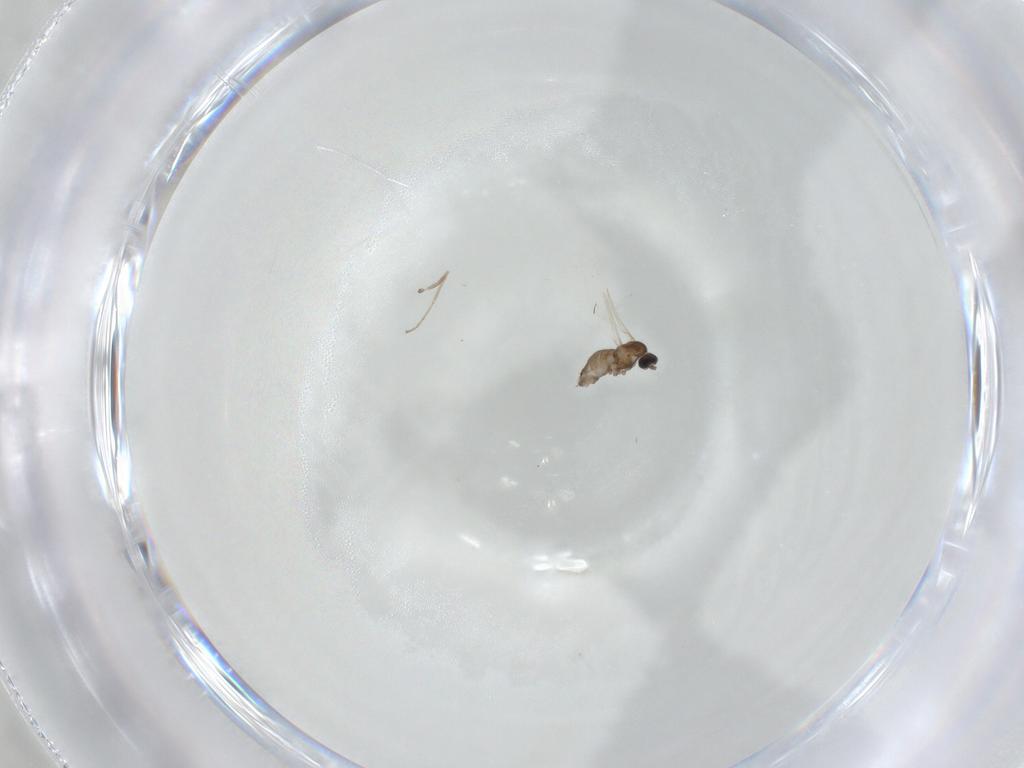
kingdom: Animalia
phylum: Arthropoda
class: Insecta
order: Diptera
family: Cecidomyiidae
